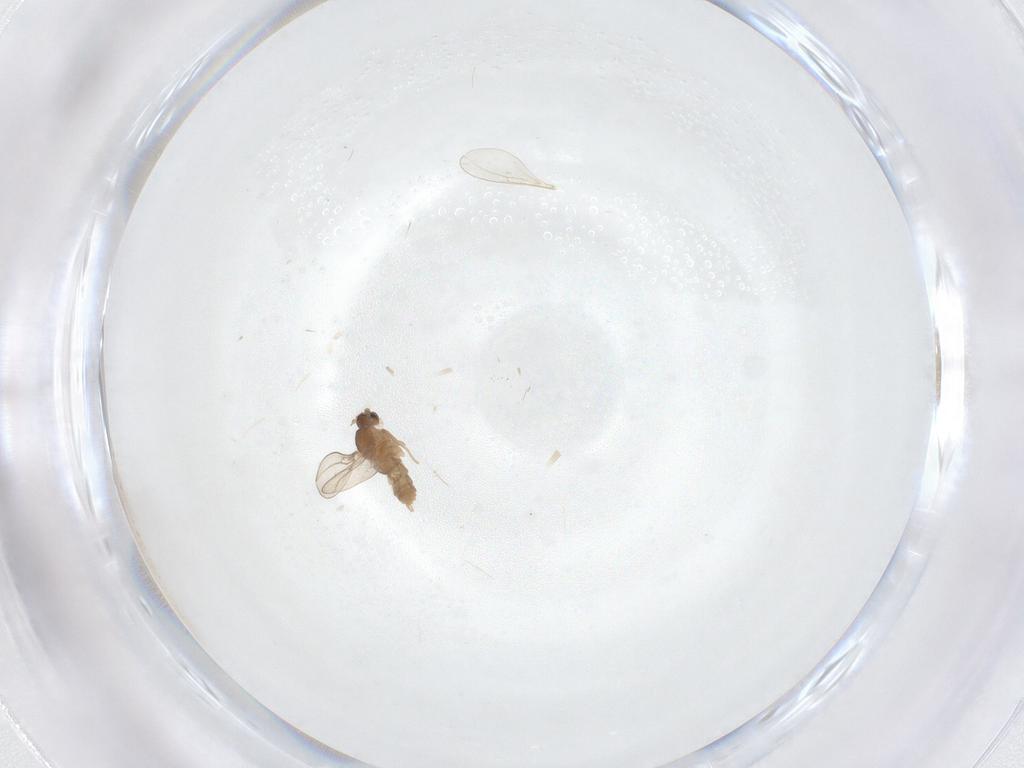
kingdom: Animalia
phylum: Arthropoda
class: Insecta
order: Diptera
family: Cecidomyiidae
